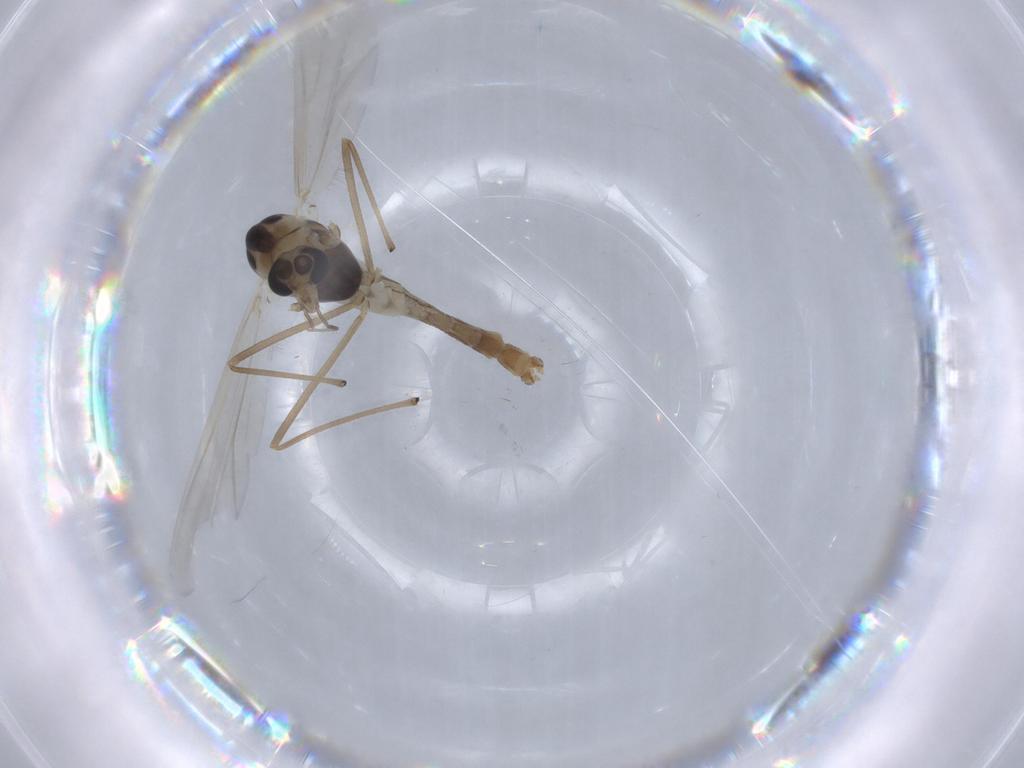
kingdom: Animalia
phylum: Arthropoda
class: Insecta
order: Diptera
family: Chironomidae
